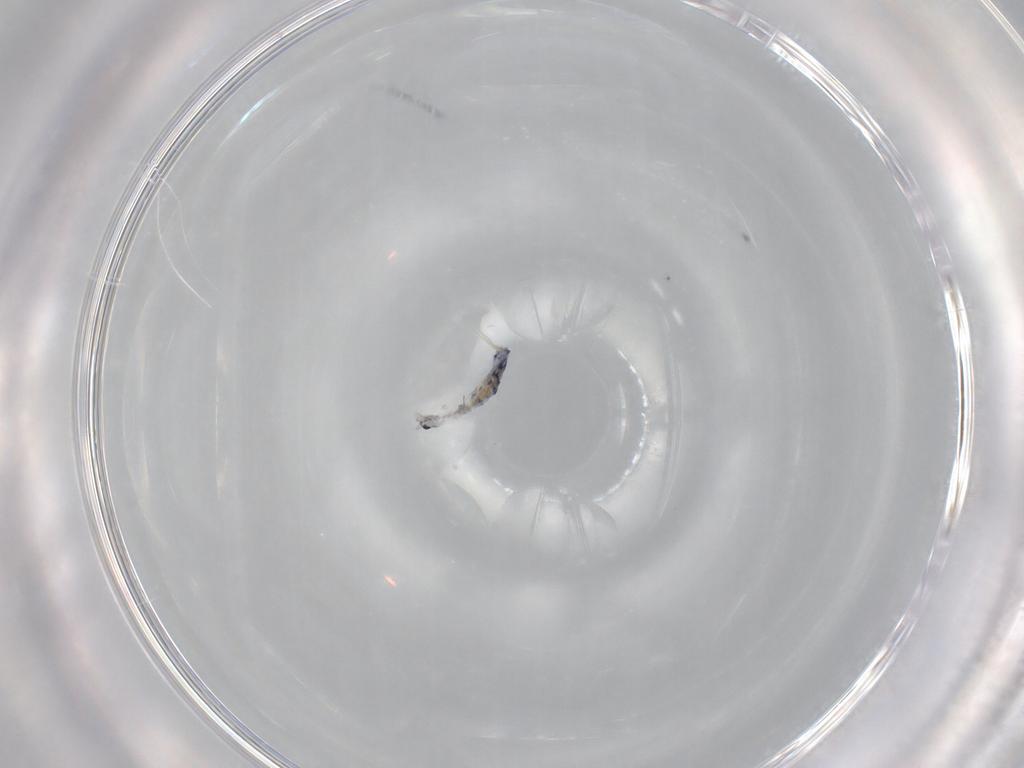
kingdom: Animalia
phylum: Arthropoda
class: Collembola
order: Entomobryomorpha
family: Entomobryidae
